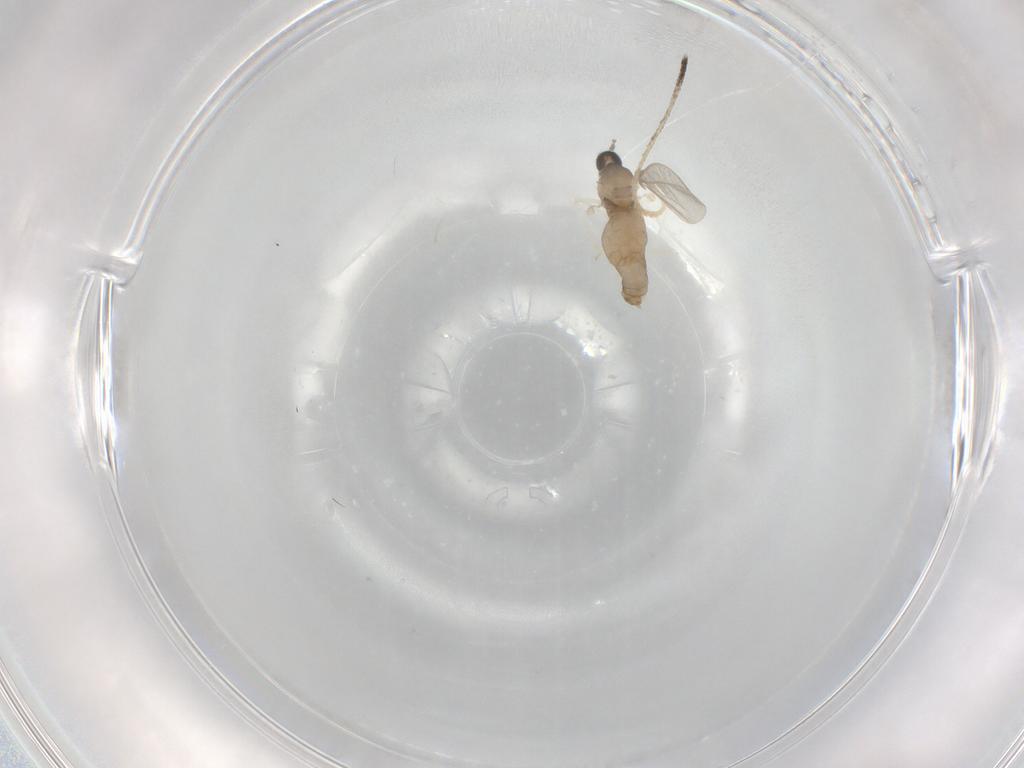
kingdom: Animalia
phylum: Arthropoda
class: Insecta
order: Diptera
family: Cecidomyiidae
